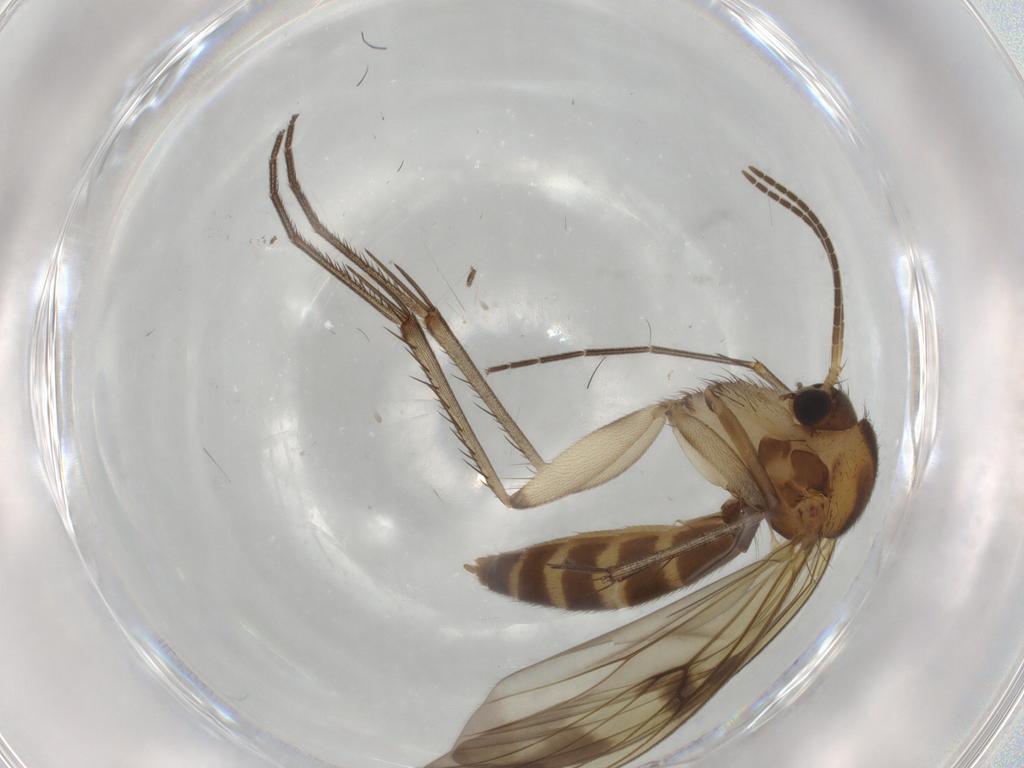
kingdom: Animalia
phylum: Arthropoda
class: Insecta
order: Diptera
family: Mycetophilidae
